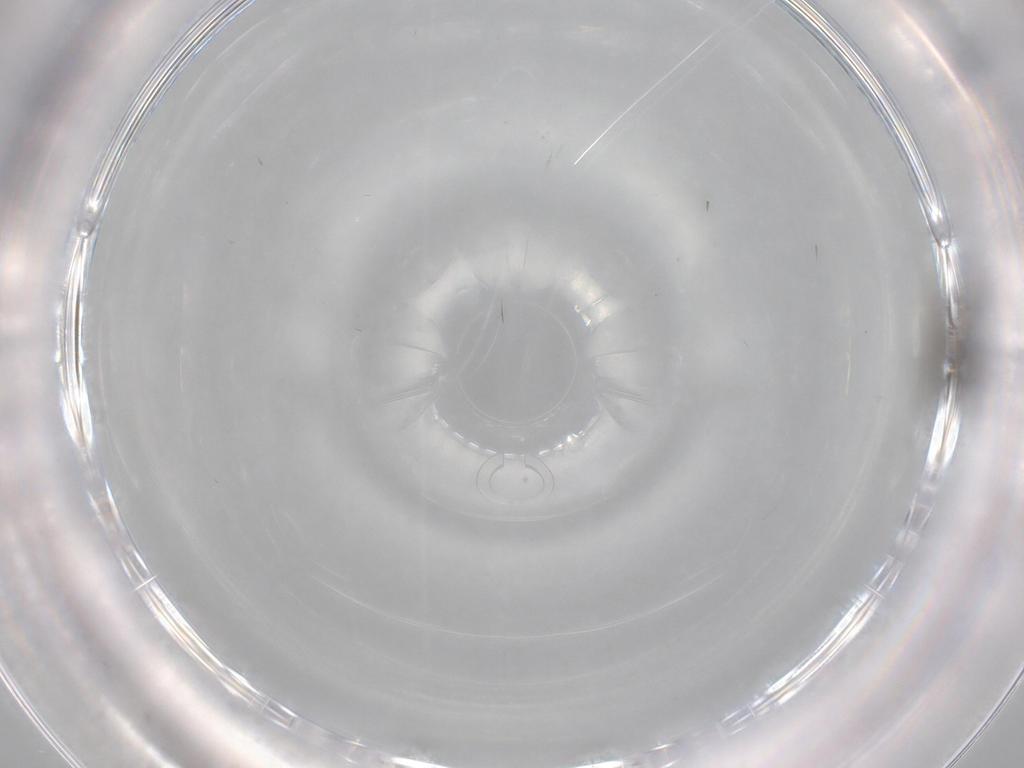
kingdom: Animalia
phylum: Arthropoda
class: Insecta
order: Hymenoptera
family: Scelionidae
